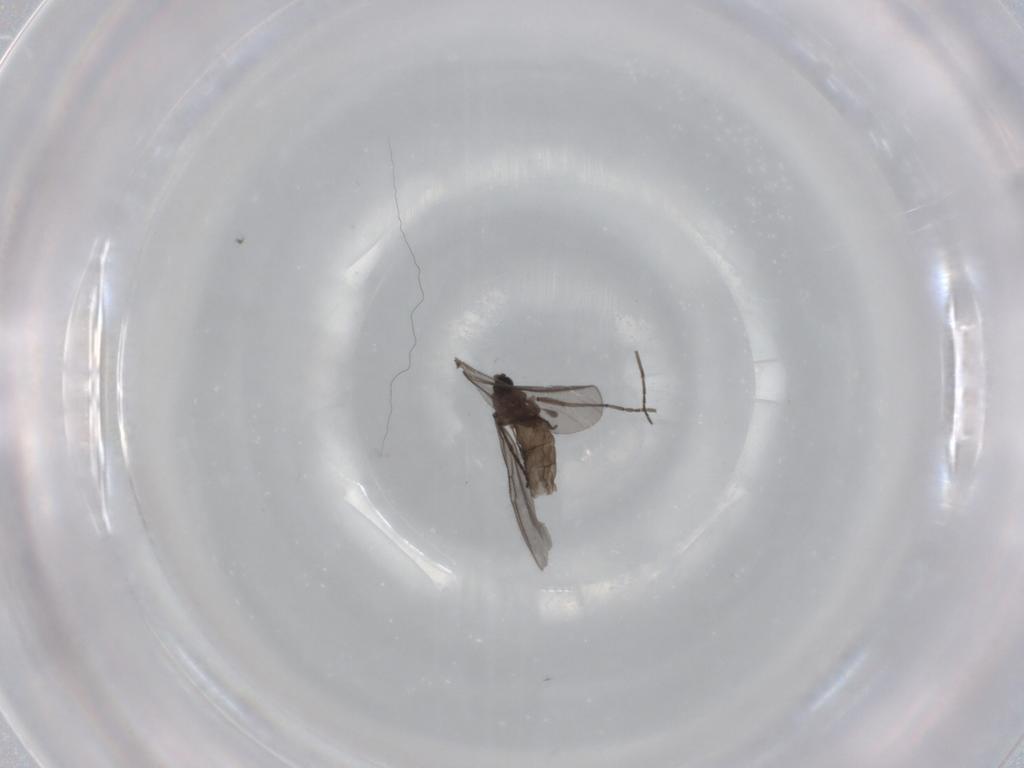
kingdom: Animalia
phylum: Arthropoda
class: Insecta
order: Diptera
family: Sciaridae
